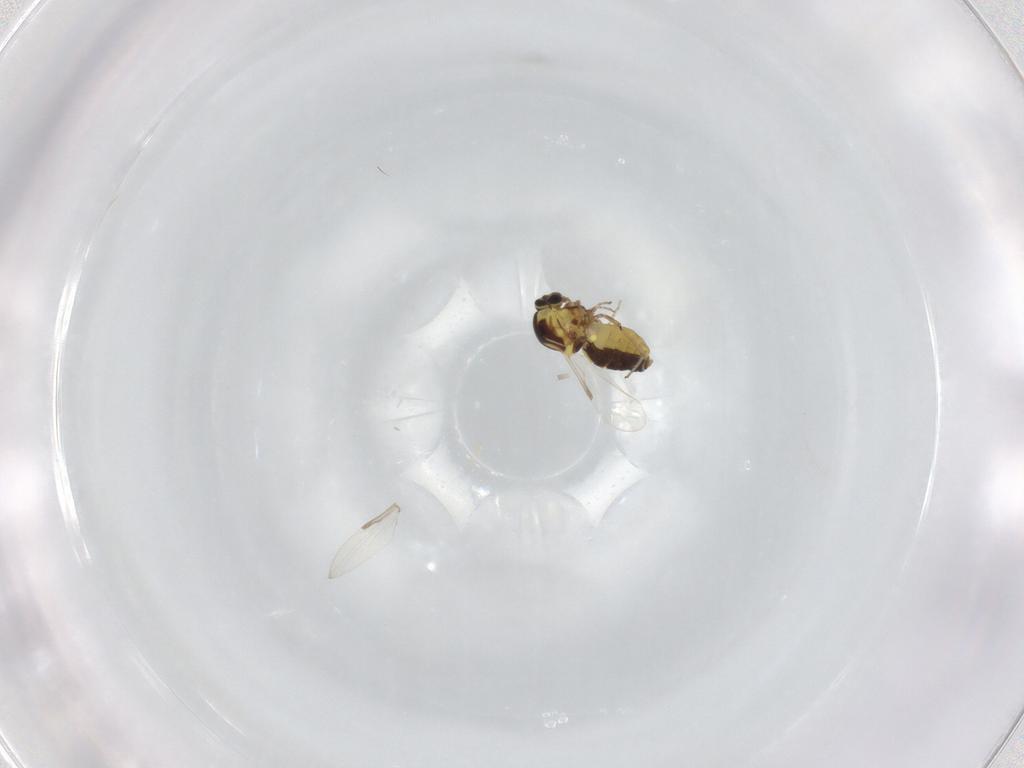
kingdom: Animalia
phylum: Arthropoda
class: Insecta
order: Diptera
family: Ceratopogonidae
